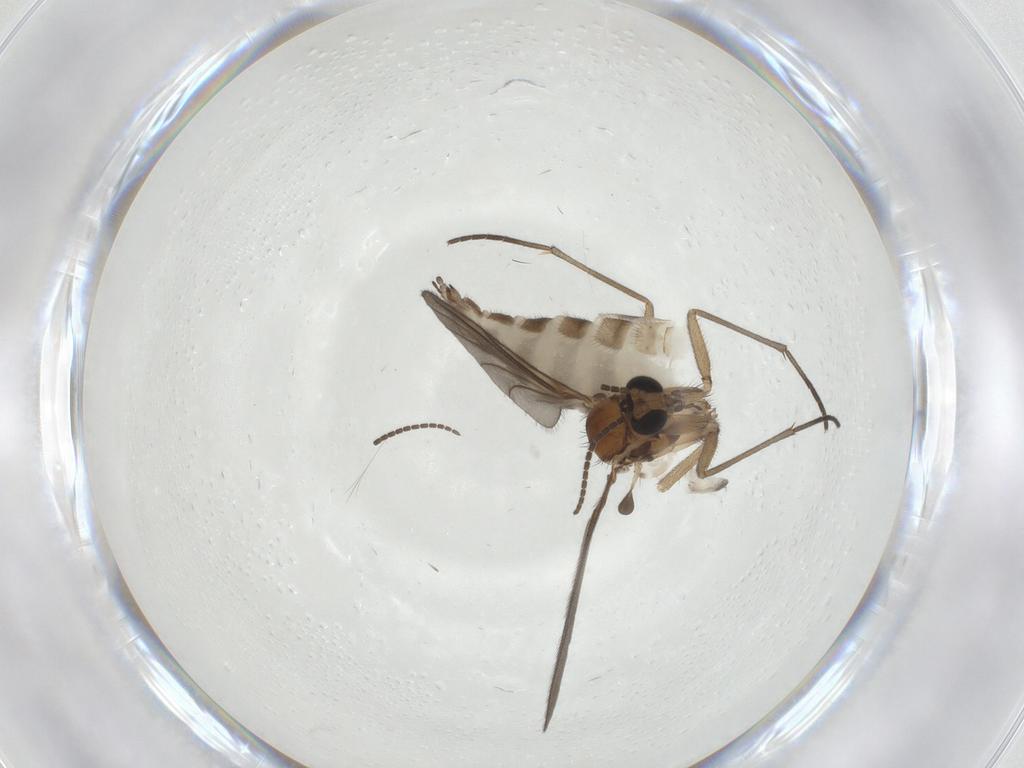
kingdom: Animalia
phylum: Arthropoda
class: Insecta
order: Diptera
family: Sciaridae
